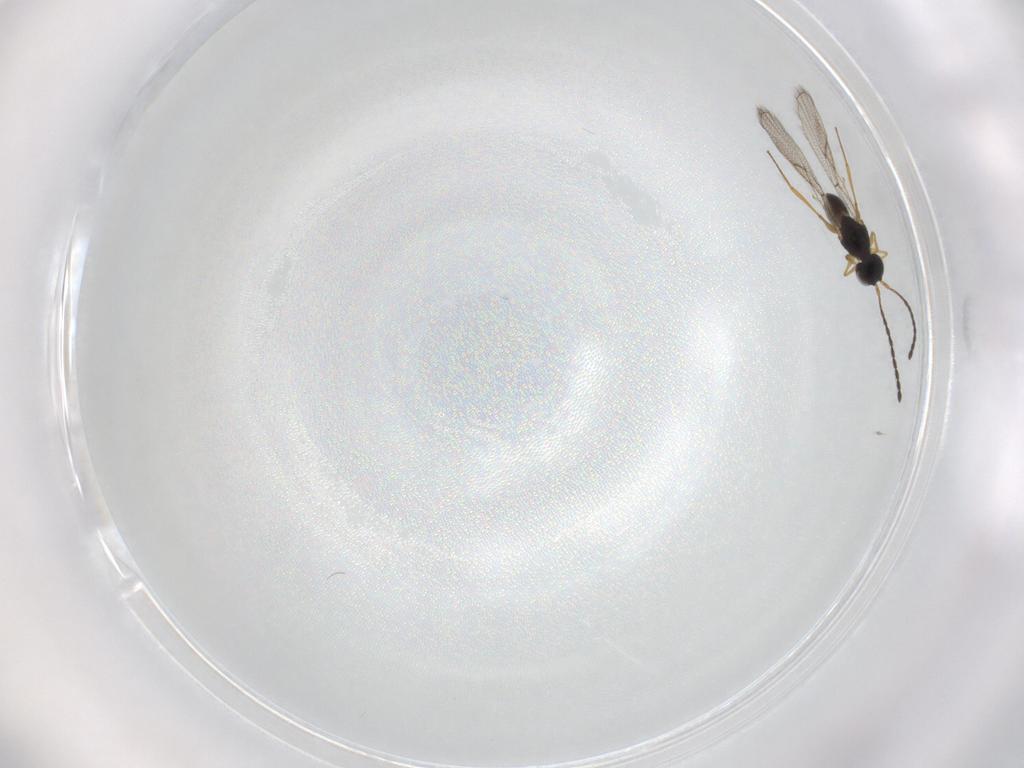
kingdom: Animalia
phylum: Arthropoda
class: Insecta
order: Hymenoptera
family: Figitidae
